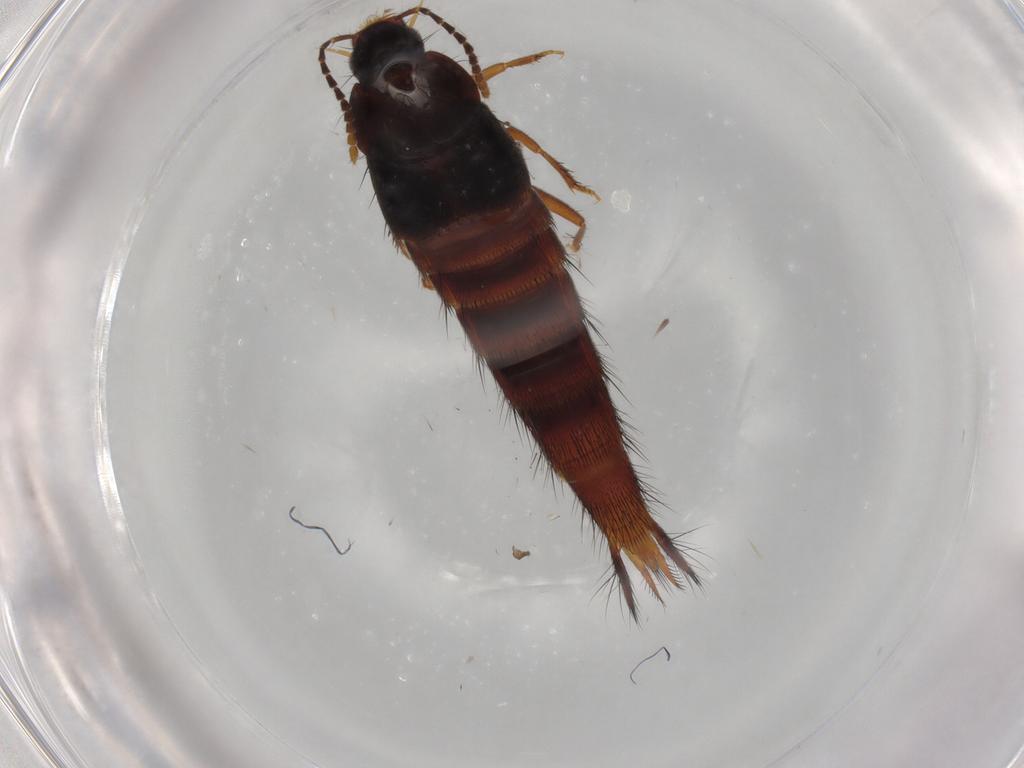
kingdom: Animalia
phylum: Arthropoda
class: Insecta
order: Coleoptera
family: Staphylinidae
